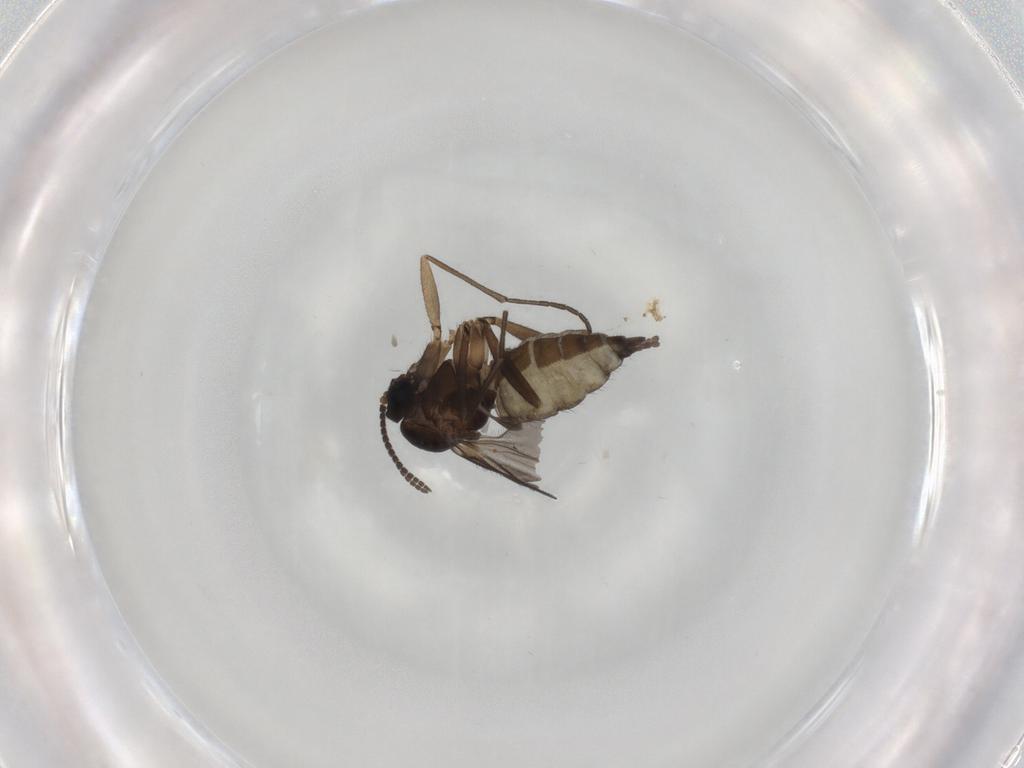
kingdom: Animalia
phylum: Arthropoda
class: Insecta
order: Diptera
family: Sciaridae
